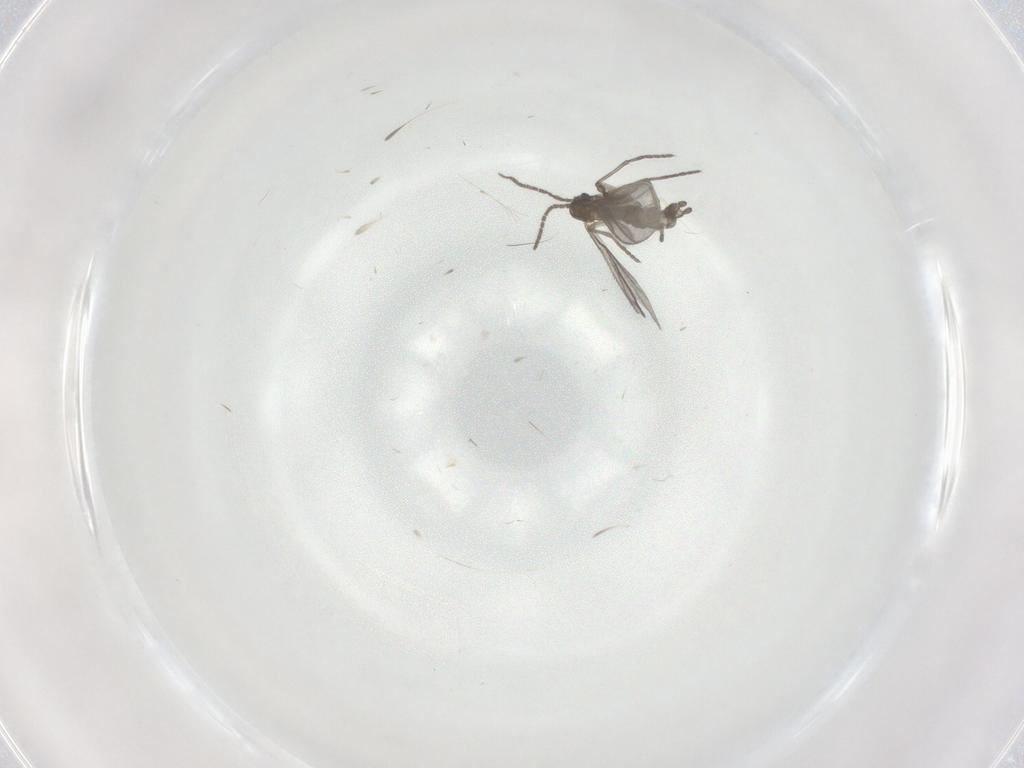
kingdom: Animalia
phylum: Arthropoda
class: Insecta
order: Diptera
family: Sciaridae
